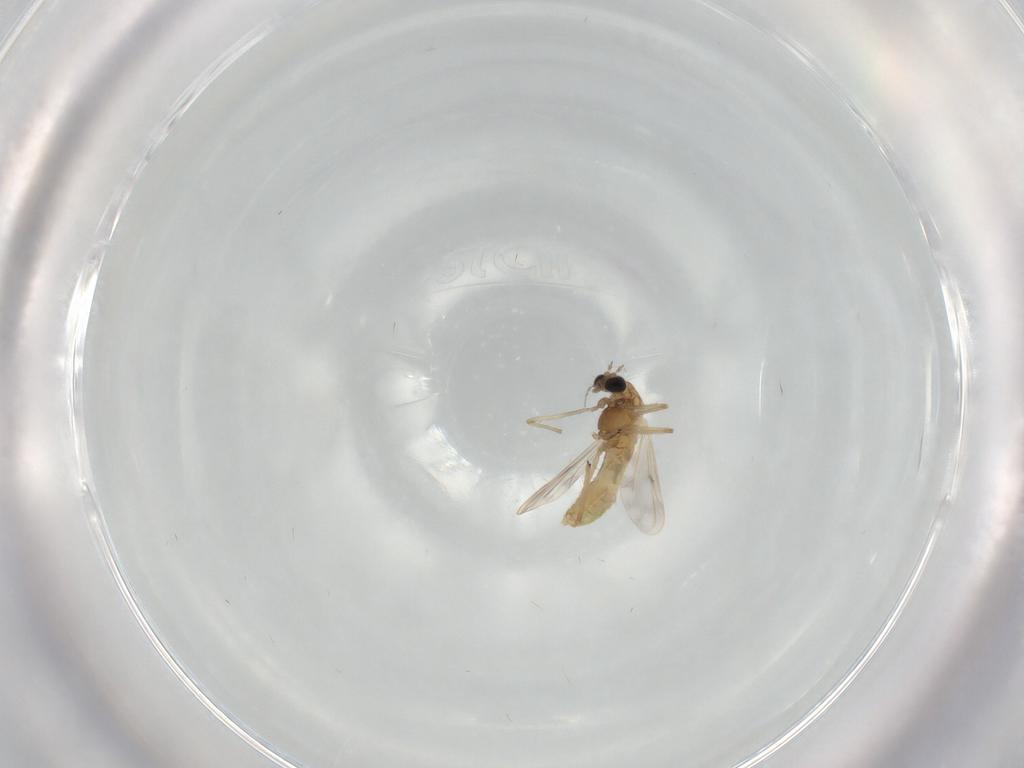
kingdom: Animalia
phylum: Arthropoda
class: Insecta
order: Diptera
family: Chironomidae
